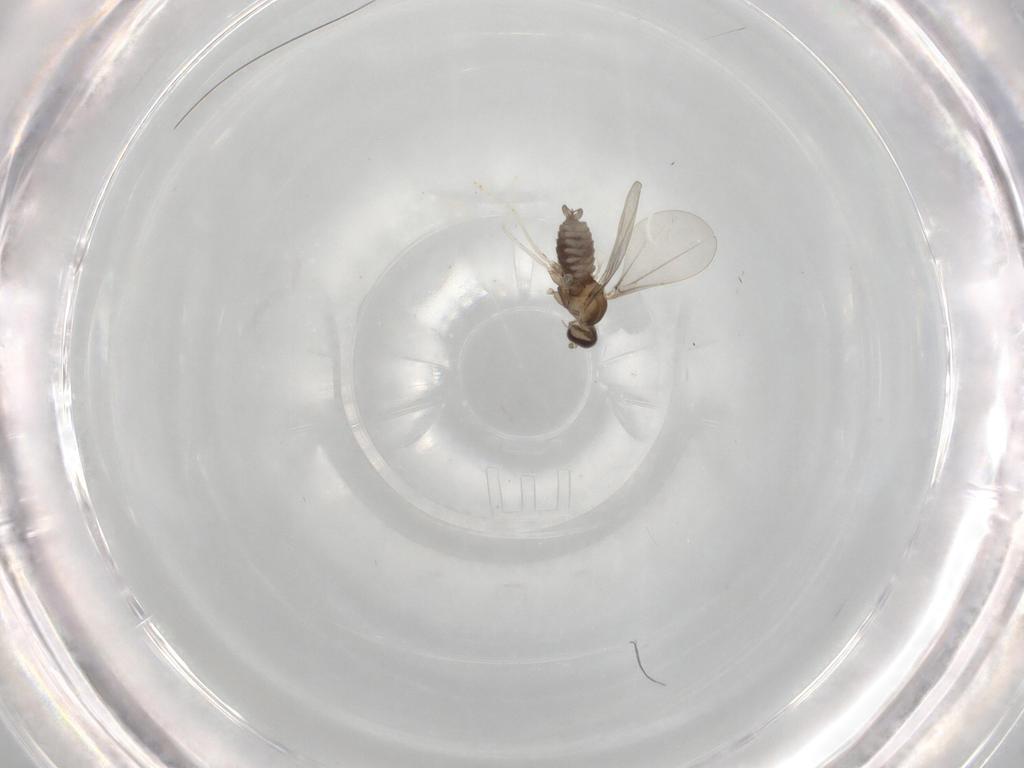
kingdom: Animalia
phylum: Arthropoda
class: Insecta
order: Diptera
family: Cecidomyiidae
